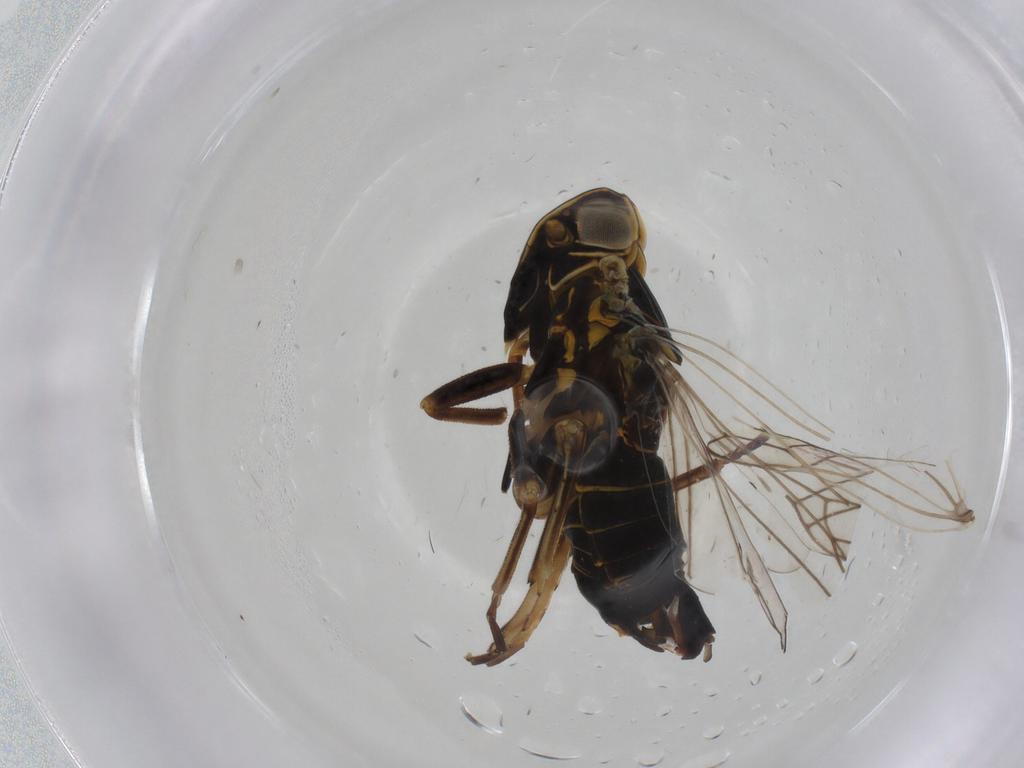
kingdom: Animalia
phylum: Arthropoda
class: Insecta
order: Hemiptera
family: Cixiidae
